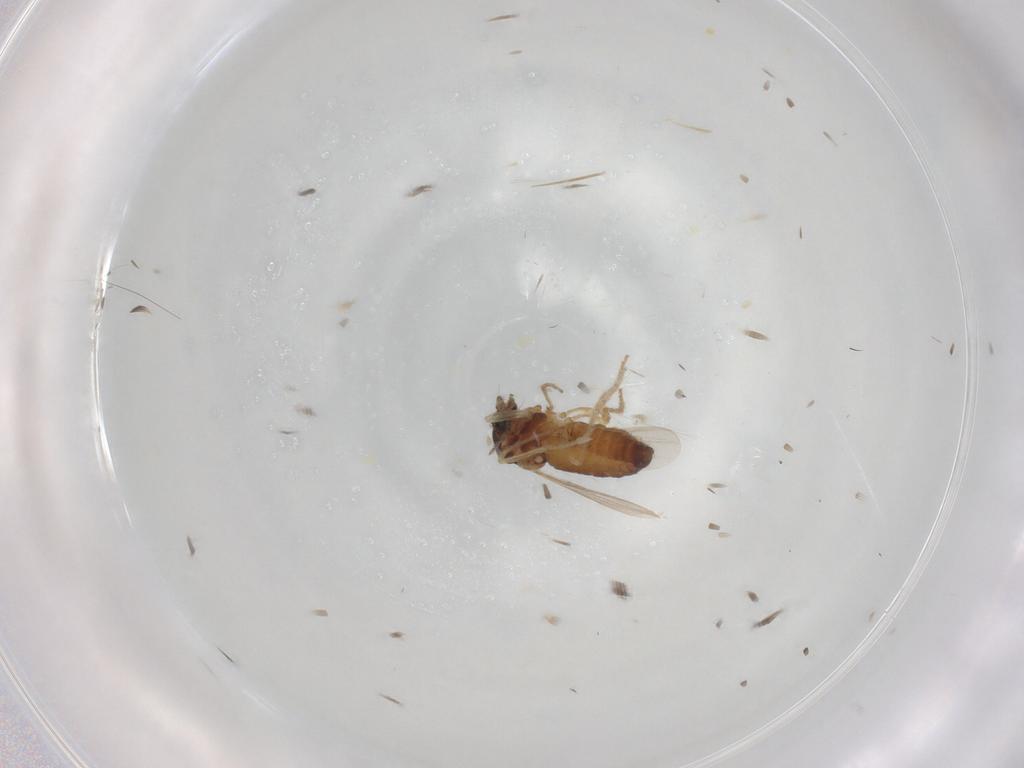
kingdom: Animalia
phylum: Arthropoda
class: Insecta
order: Diptera
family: Ceratopogonidae
